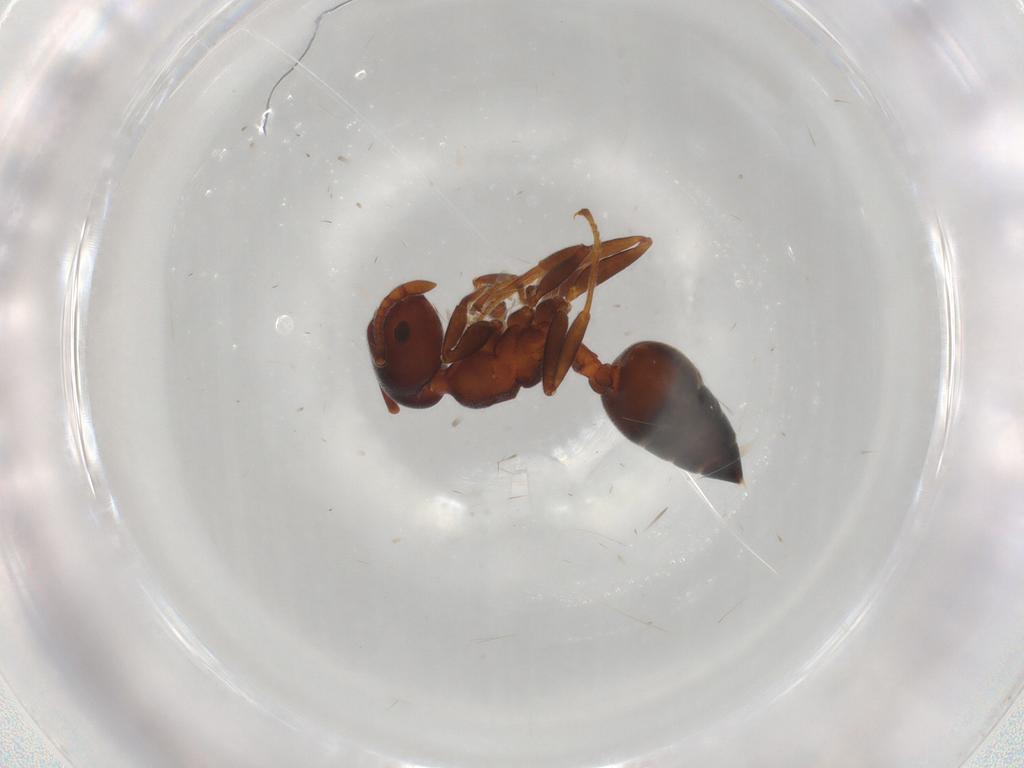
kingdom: Animalia
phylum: Arthropoda
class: Insecta
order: Hymenoptera
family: Formicidae
